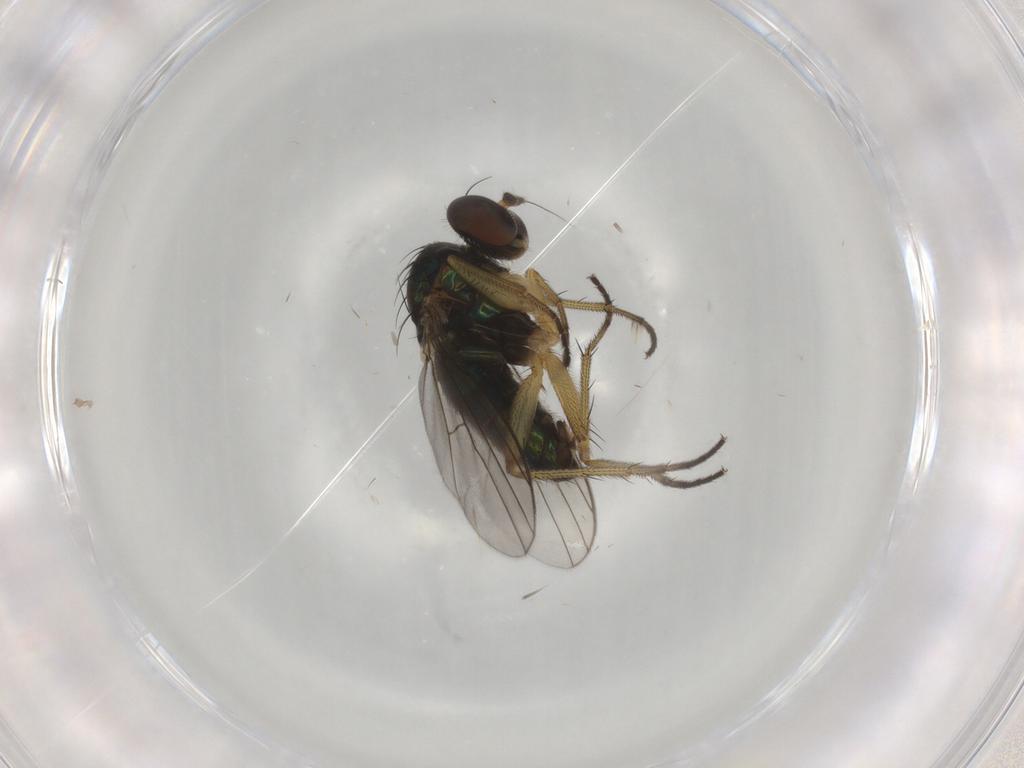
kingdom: Animalia
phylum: Arthropoda
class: Insecta
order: Diptera
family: Dolichopodidae
